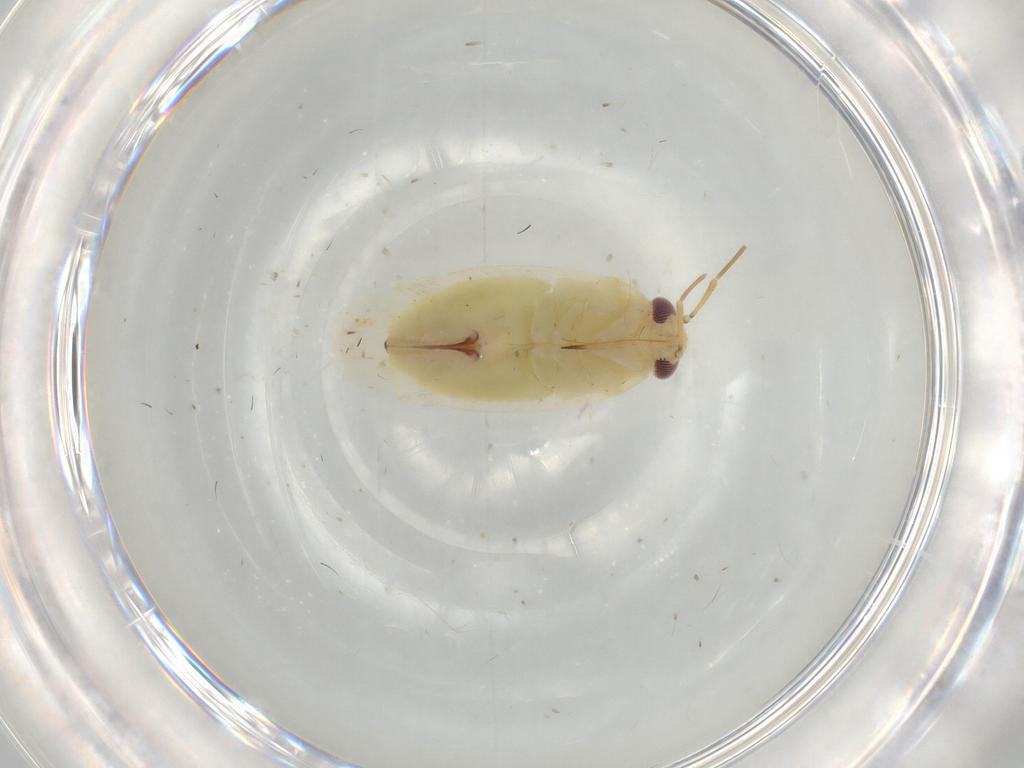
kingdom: Animalia
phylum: Arthropoda
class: Insecta
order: Hemiptera
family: Miridae
